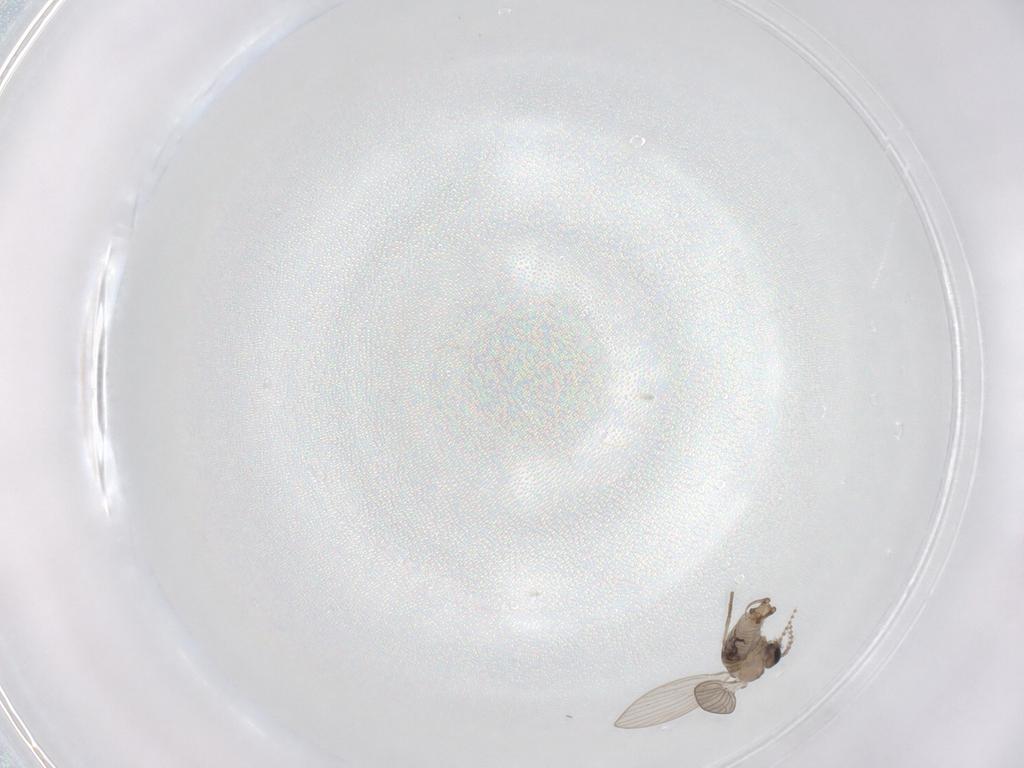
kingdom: Animalia
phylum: Arthropoda
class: Insecta
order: Diptera
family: Psychodidae
